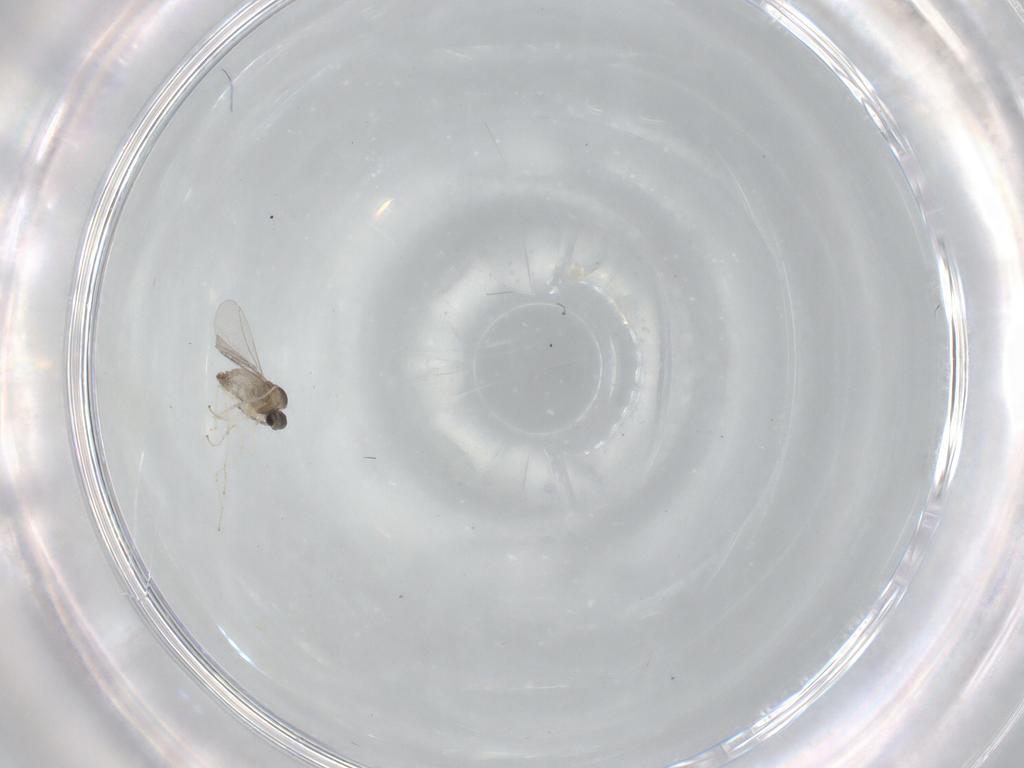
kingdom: Animalia
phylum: Arthropoda
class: Insecta
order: Diptera
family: Cecidomyiidae
